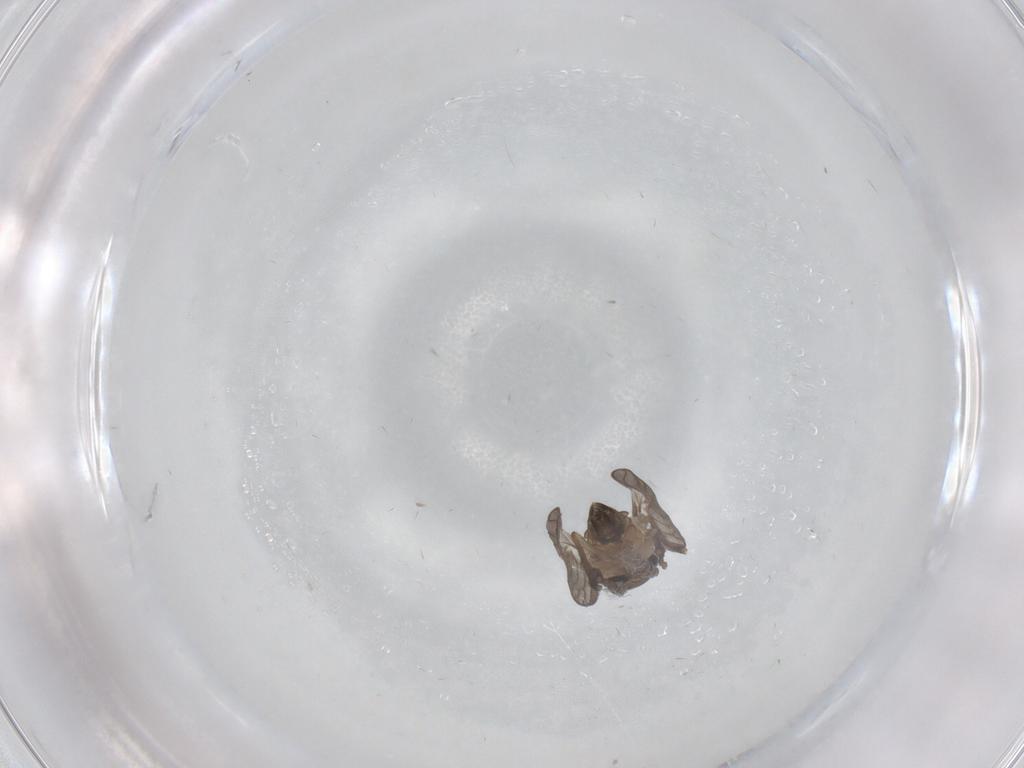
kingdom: Animalia
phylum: Arthropoda
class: Insecta
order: Diptera
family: Psychodidae
